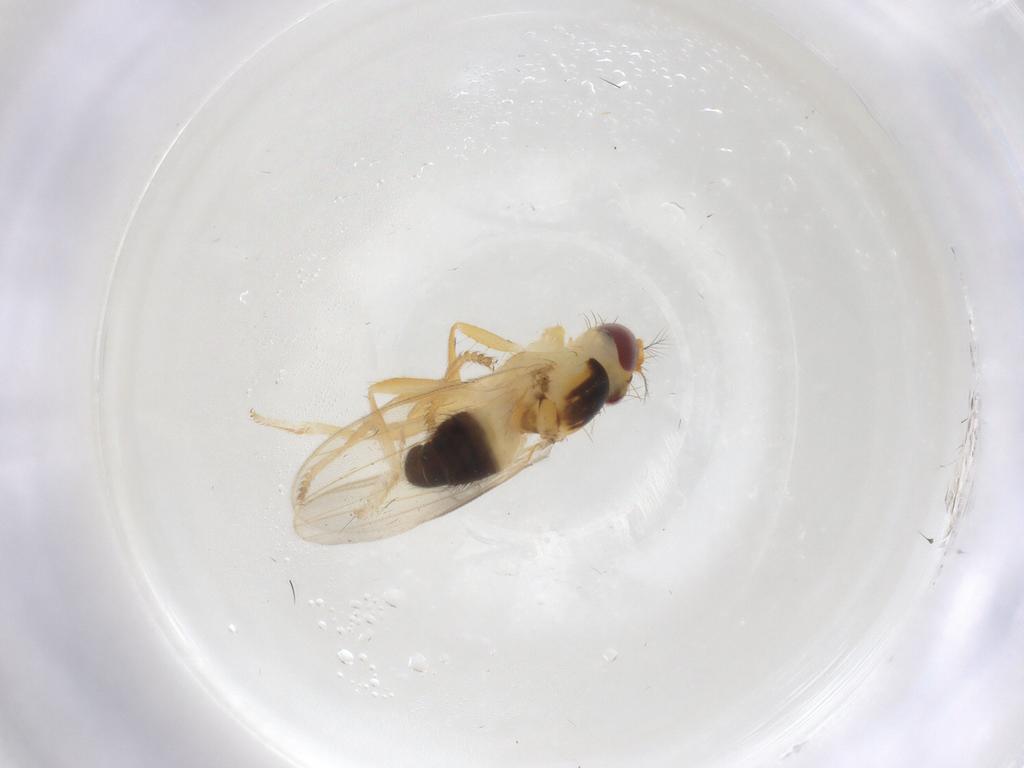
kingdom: Animalia
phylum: Arthropoda
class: Insecta
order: Diptera
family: Periscelididae
